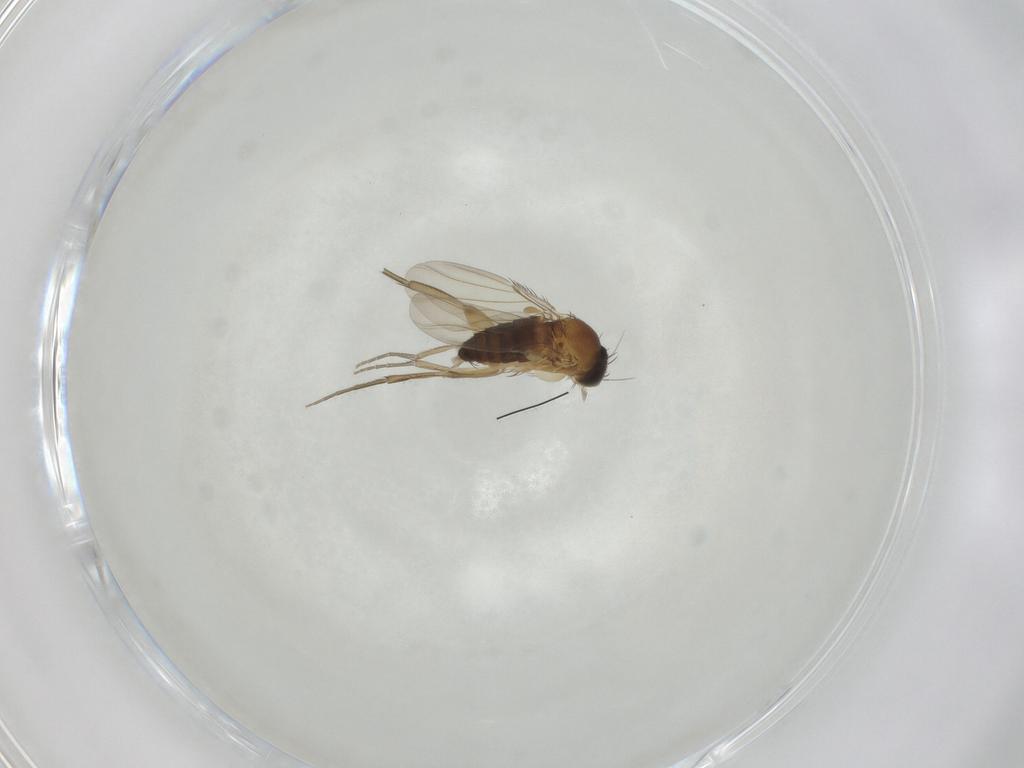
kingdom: Animalia
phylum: Arthropoda
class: Insecta
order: Diptera
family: Phoridae
